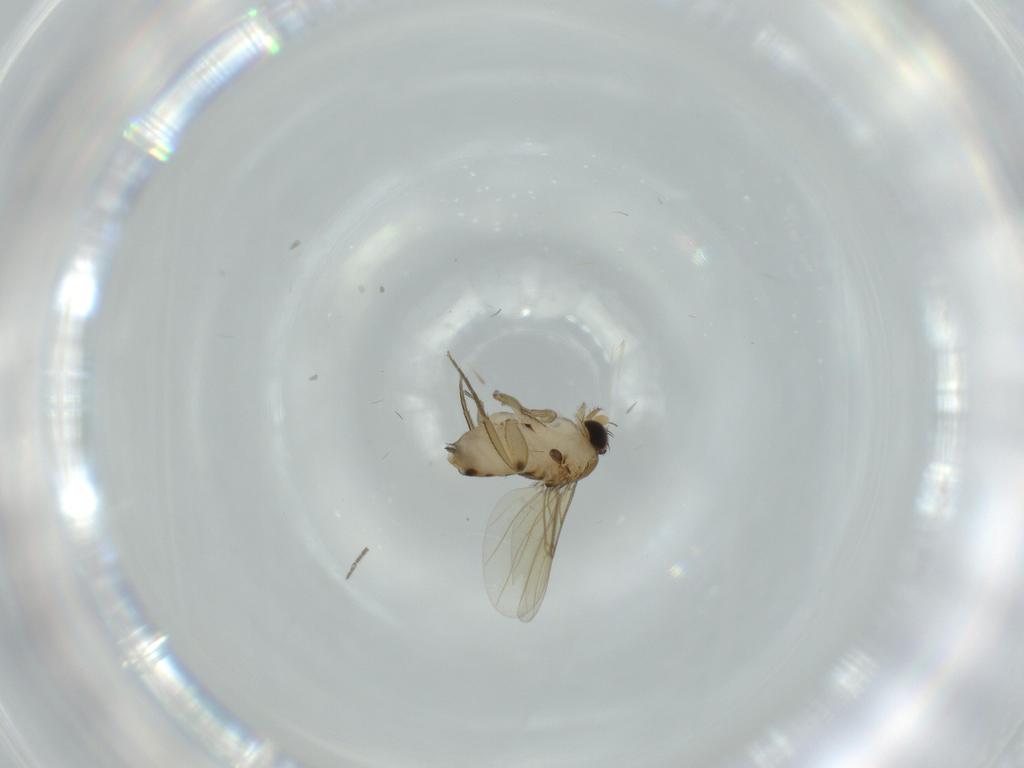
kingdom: Animalia
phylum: Arthropoda
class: Insecta
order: Diptera
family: Sciaridae
